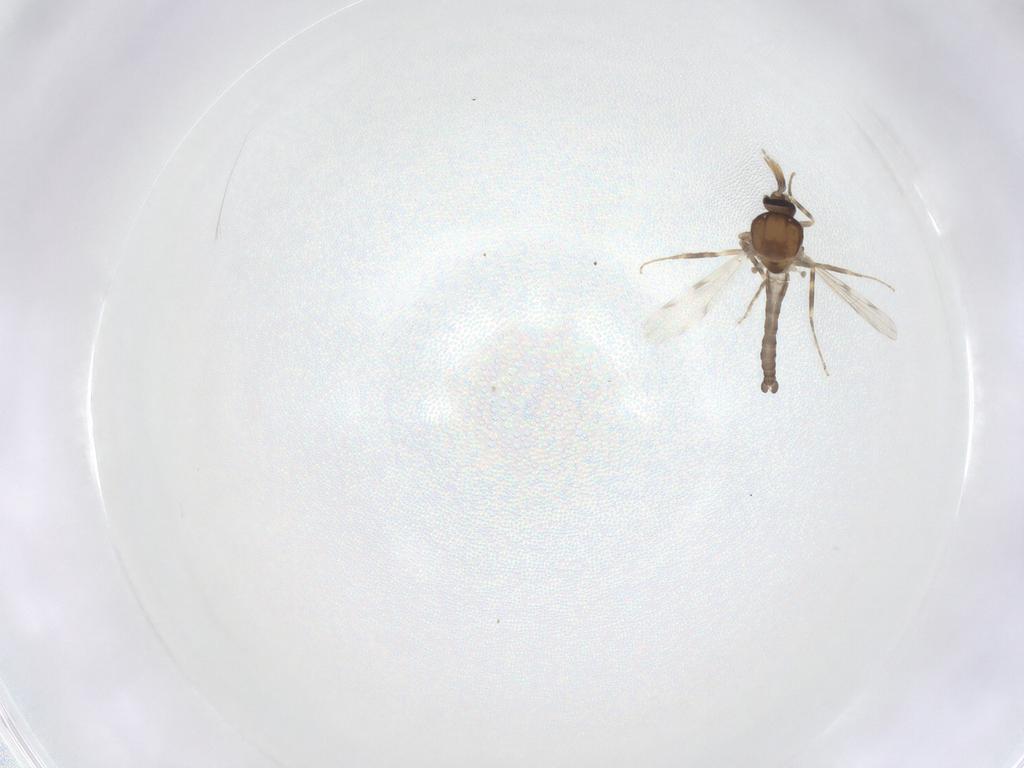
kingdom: Animalia
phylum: Arthropoda
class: Insecta
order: Diptera
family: Ceratopogonidae
